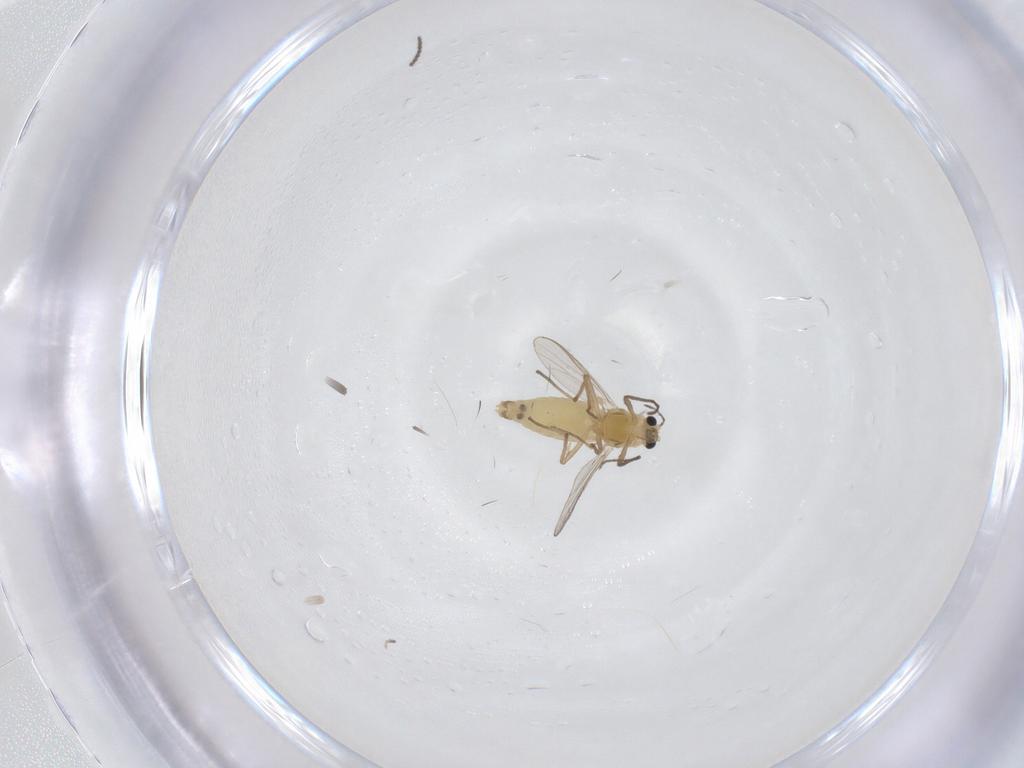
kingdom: Animalia
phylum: Arthropoda
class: Insecta
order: Diptera
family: Chironomidae
